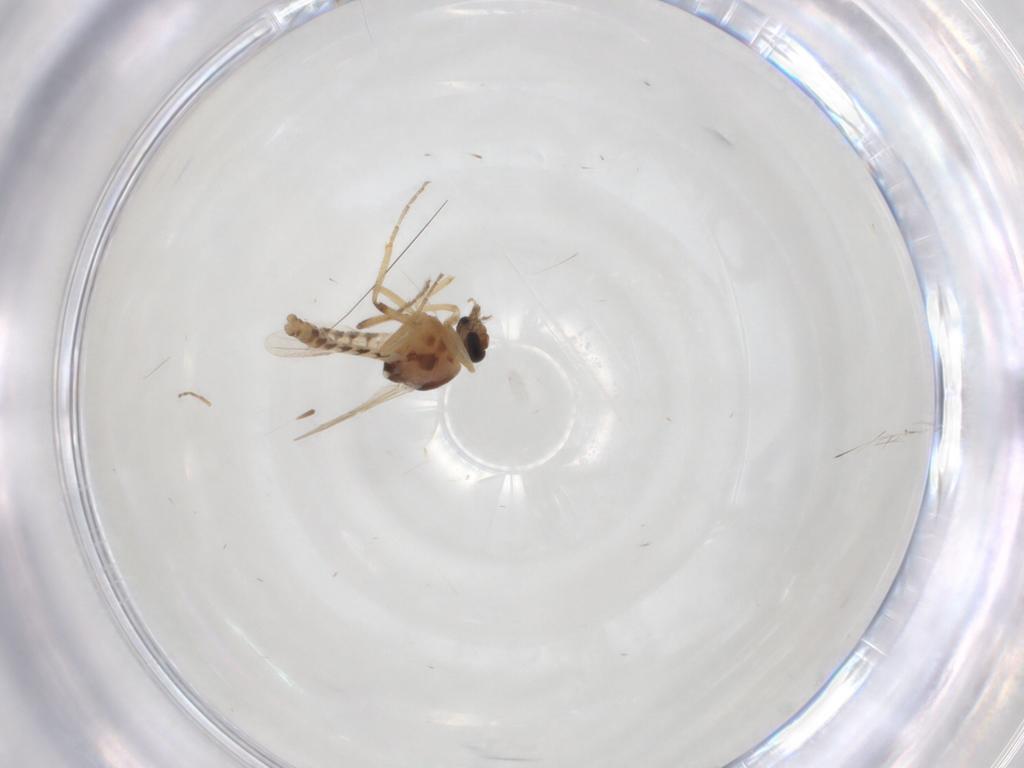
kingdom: Animalia
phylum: Arthropoda
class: Insecta
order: Diptera
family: Ceratopogonidae
